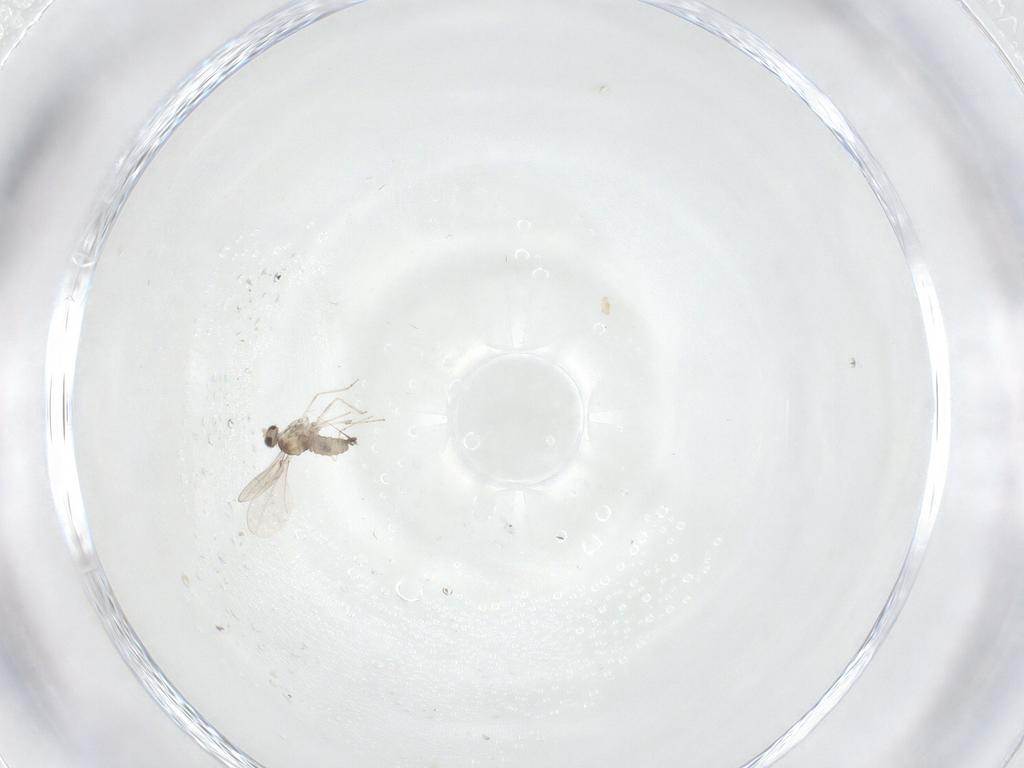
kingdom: Animalia
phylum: Arthropoda
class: Insecta
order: Diptera
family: Cecidomyiidae
